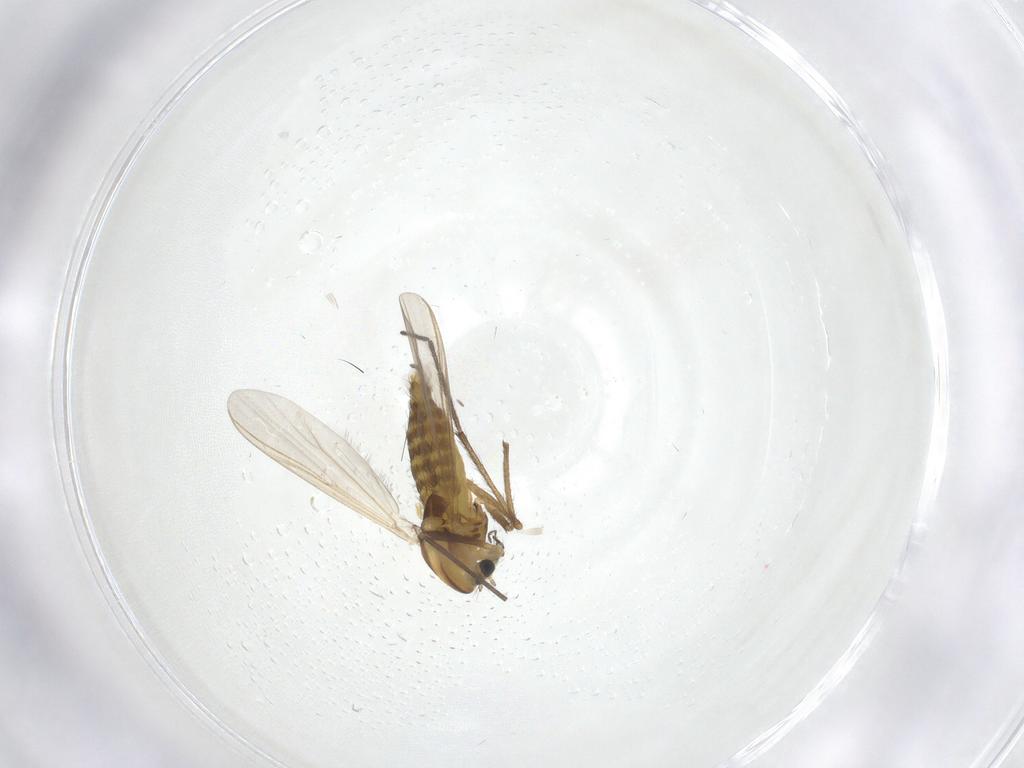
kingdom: Animalia
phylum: Arthropoda
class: Insecta
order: Diptera
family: Chironomidae
